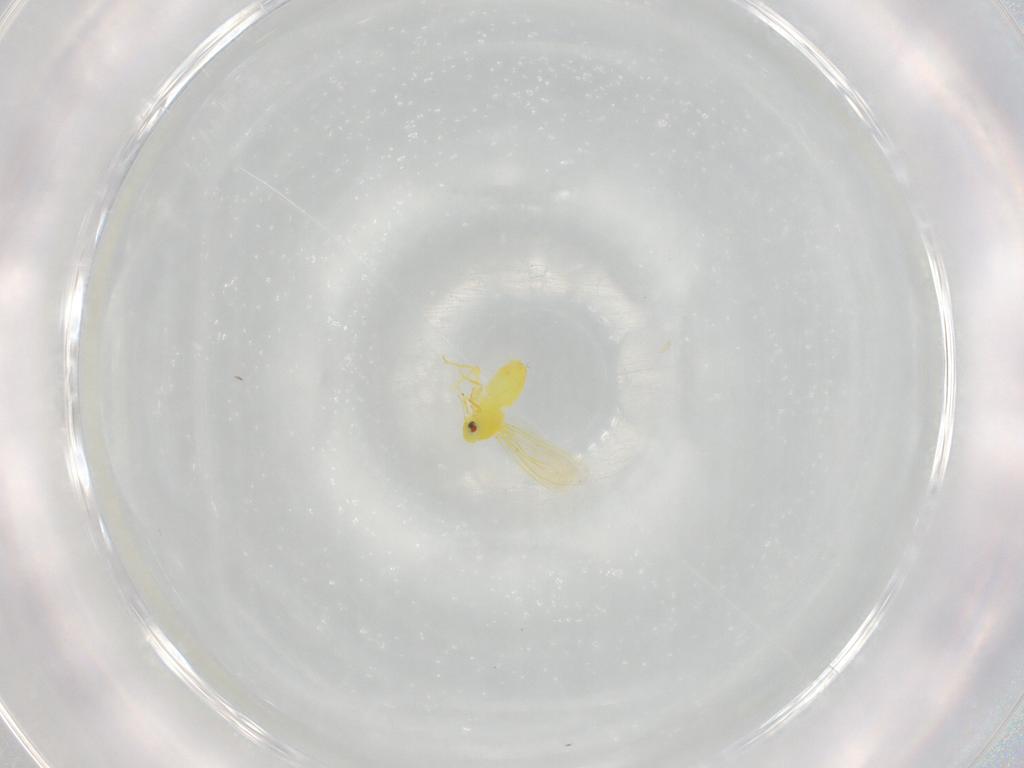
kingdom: Animalia
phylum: Arthropoda
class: Insecta
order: Hemiptera
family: Aleyrodidae
